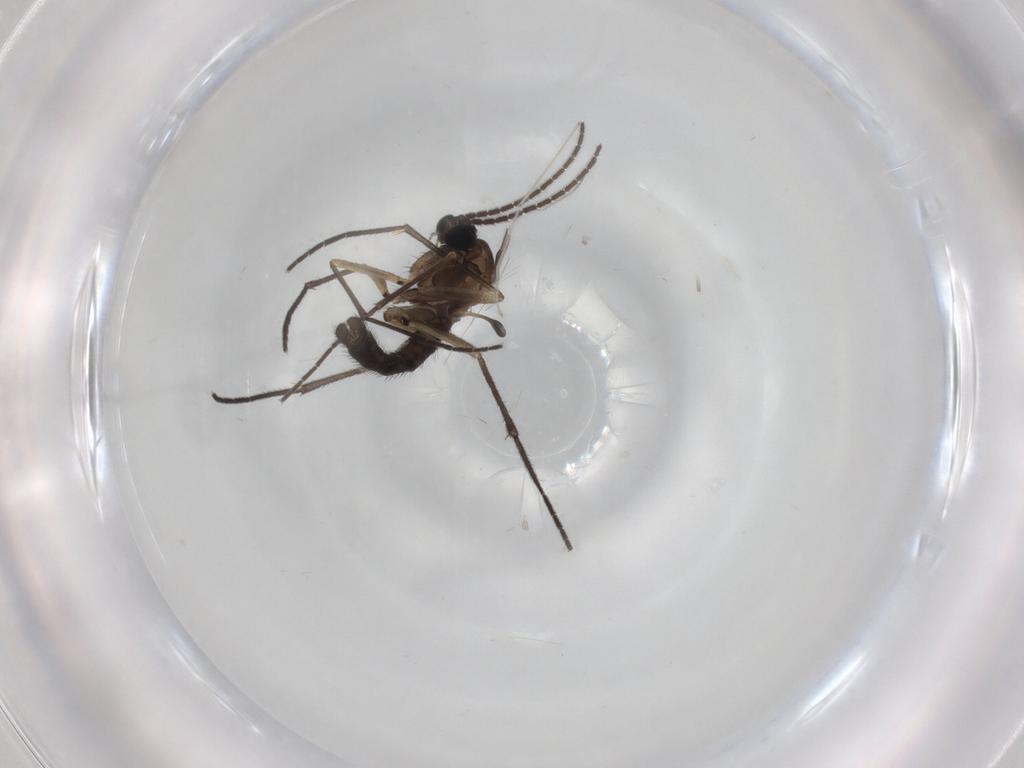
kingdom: Animalia
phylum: Arthropoda
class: Insecta
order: Diptera
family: Sciaridae
